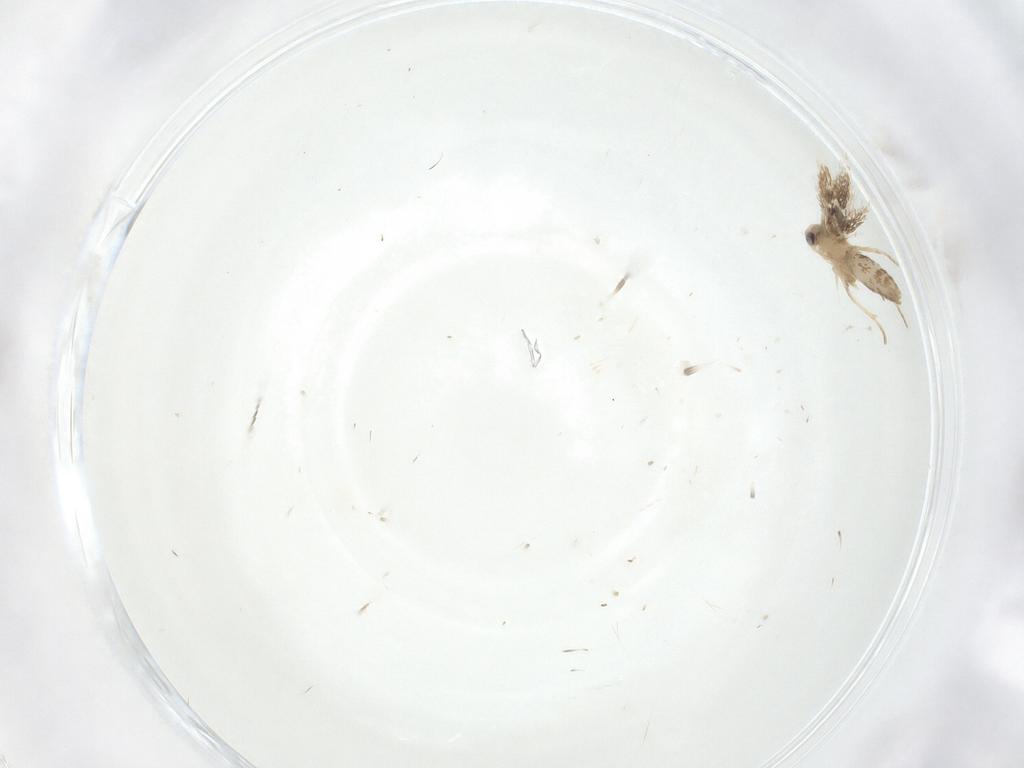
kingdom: Animalia
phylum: Arthropoda
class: Insecta
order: Lepidoptera
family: Nepticulidae
